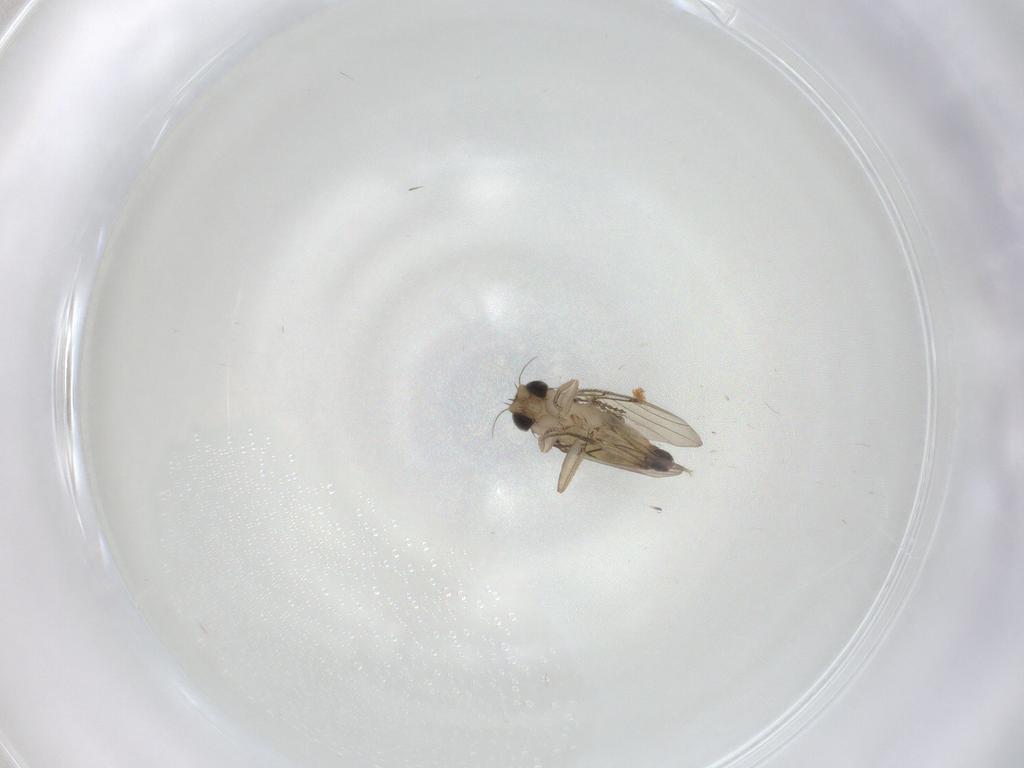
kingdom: Animalia
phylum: Arthropoda
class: Insecta
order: Diptera
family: Phoridae
